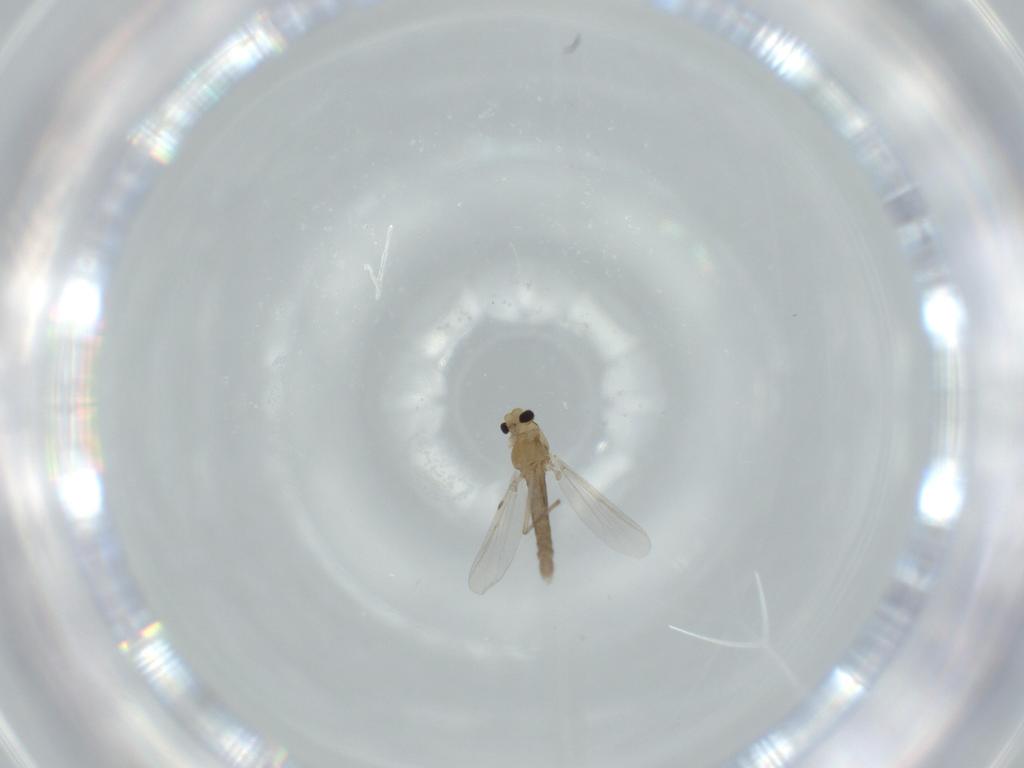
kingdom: Animalia
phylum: Arthropoda
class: Insecta
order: Diptera
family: Chironomidae
